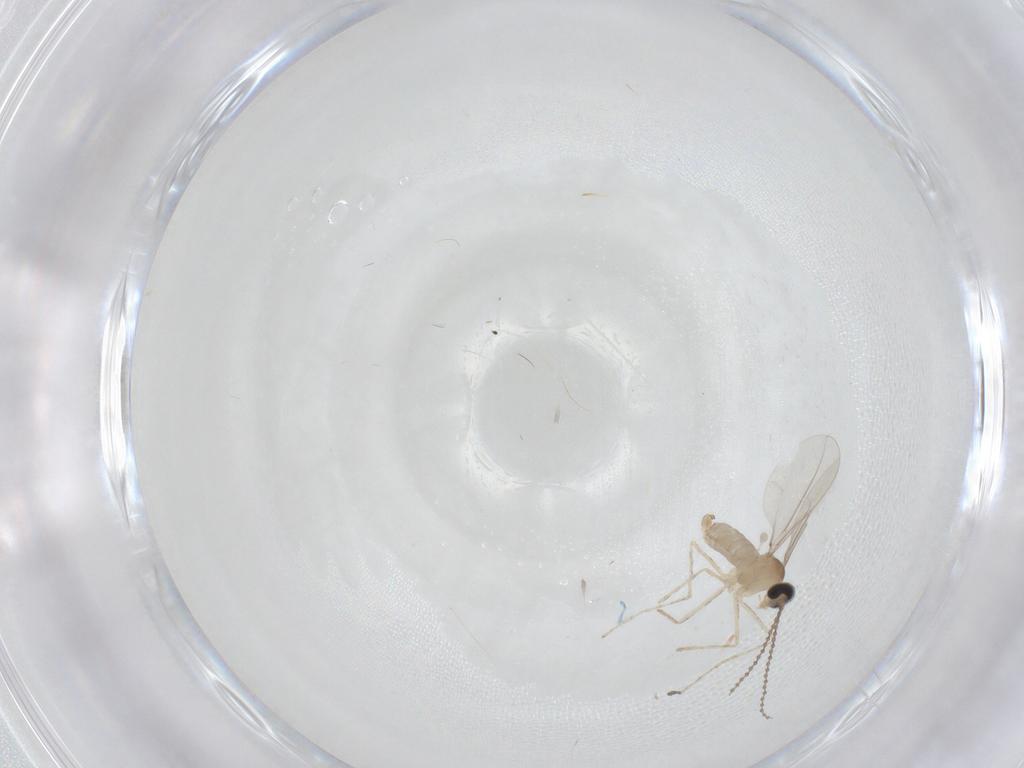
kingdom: Animalia
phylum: Arthropoda
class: Insecta
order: Diptera
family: Cecidomyiidae
